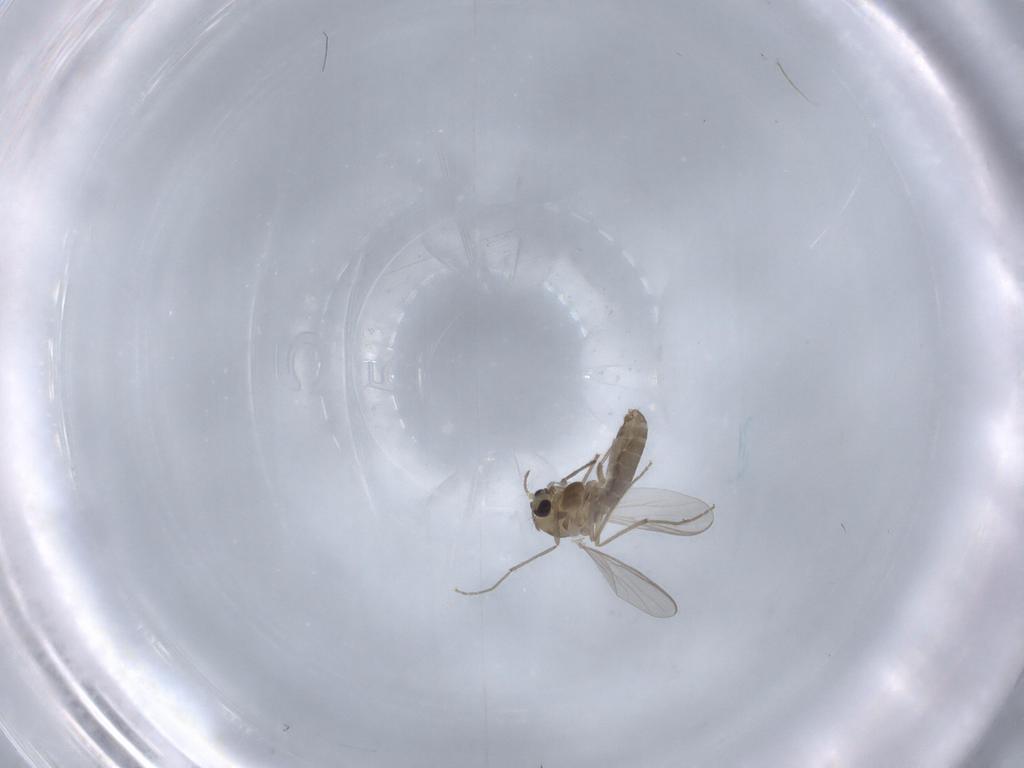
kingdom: Animalia
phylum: Arthropoda
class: Insecta
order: Diptera
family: Chironomidae
